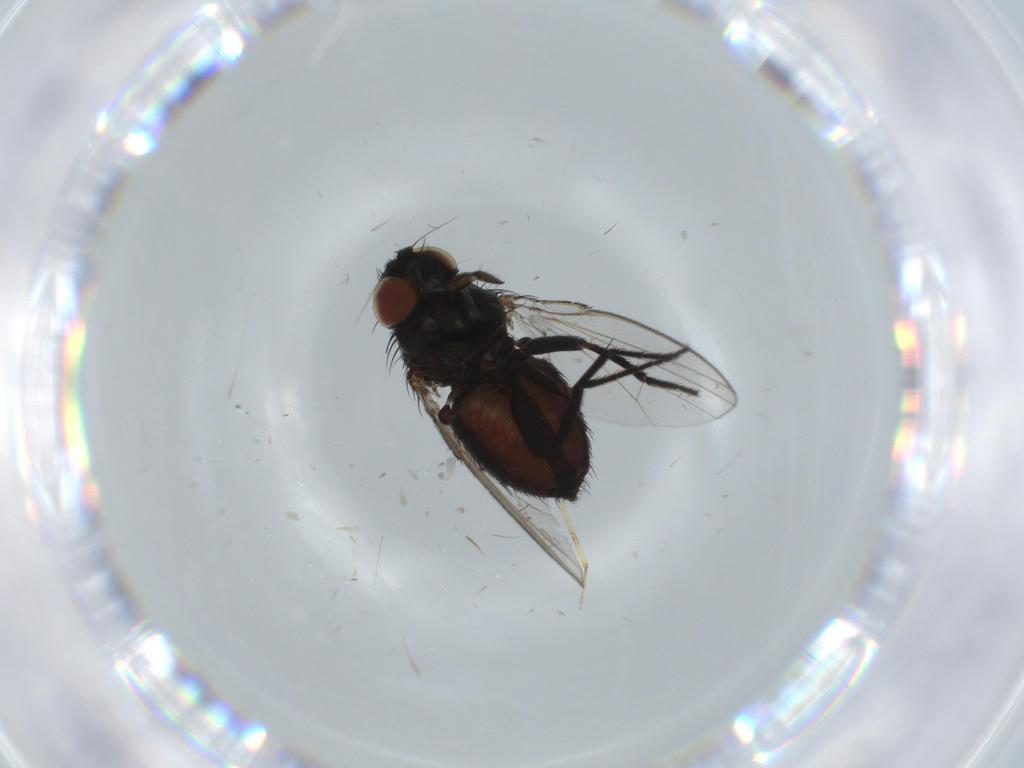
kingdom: Animalia
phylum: Arthropoda
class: Insecta
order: Diptera
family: Milichiidae
